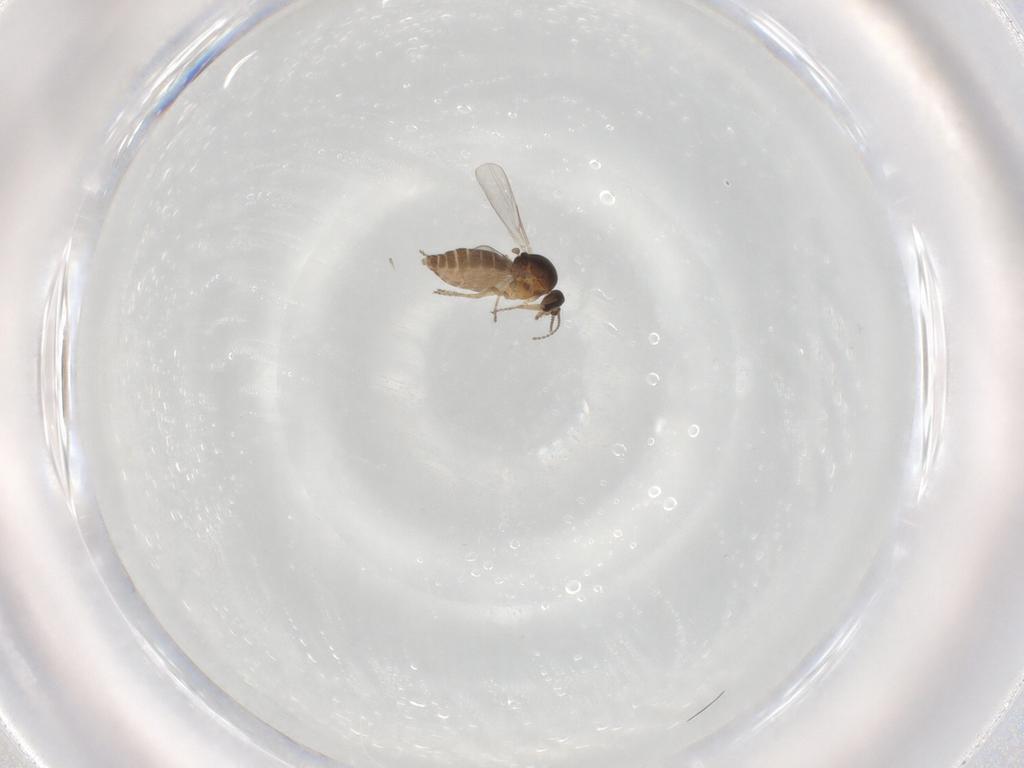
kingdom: Animalia
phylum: Arthropoda
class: Insecta
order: Diptera
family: Ceratopogonidae
